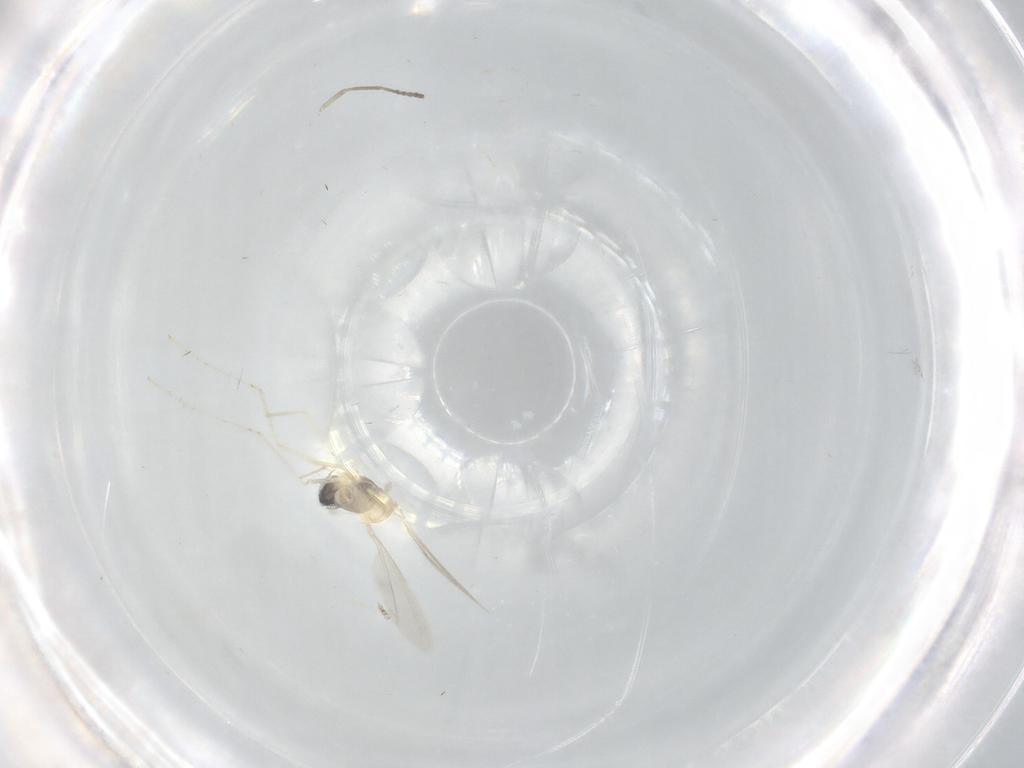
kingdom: Animalia
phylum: Arthropoda
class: Insecta
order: Diptera
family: Cecidomyiidae
